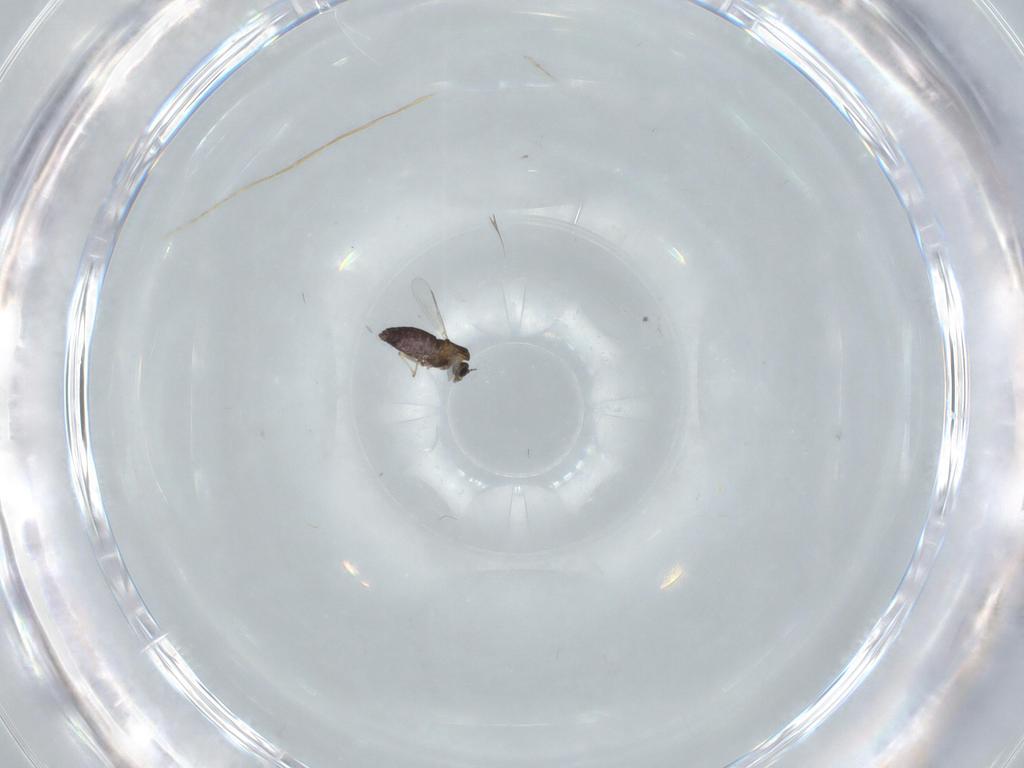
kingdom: Animalia
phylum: Arthropoda
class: Insecta
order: Diptera
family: Chironomidae
